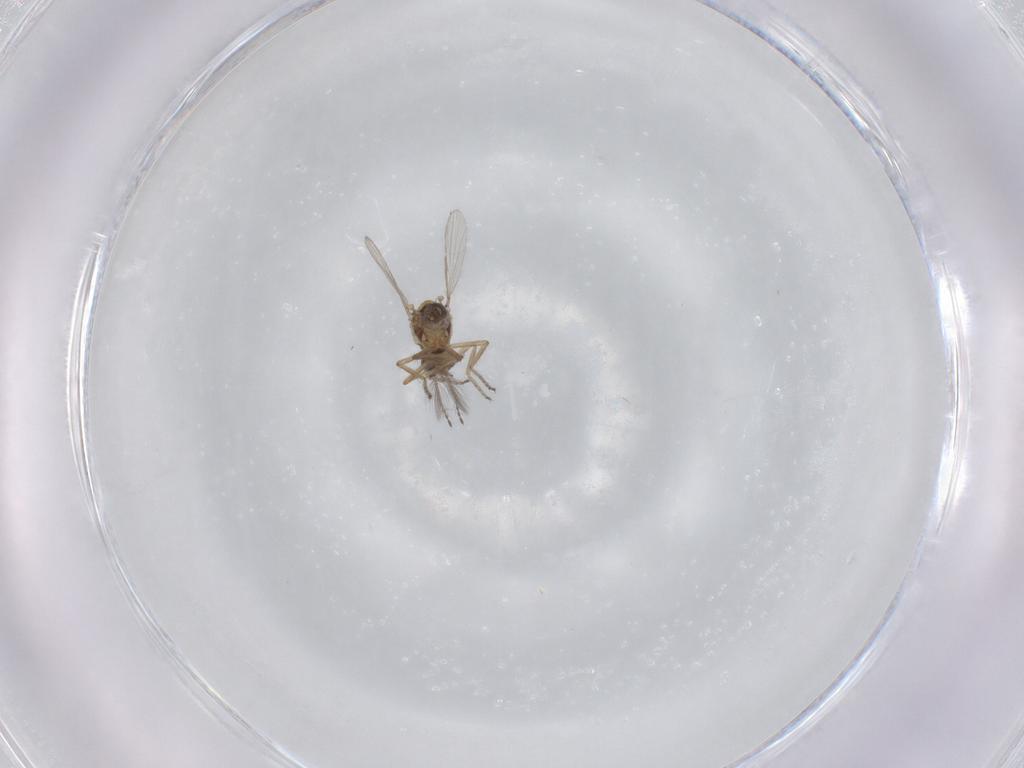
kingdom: Animalia
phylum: Arthropoda
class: Insecta
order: Diptera
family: Ceratopogonidae
